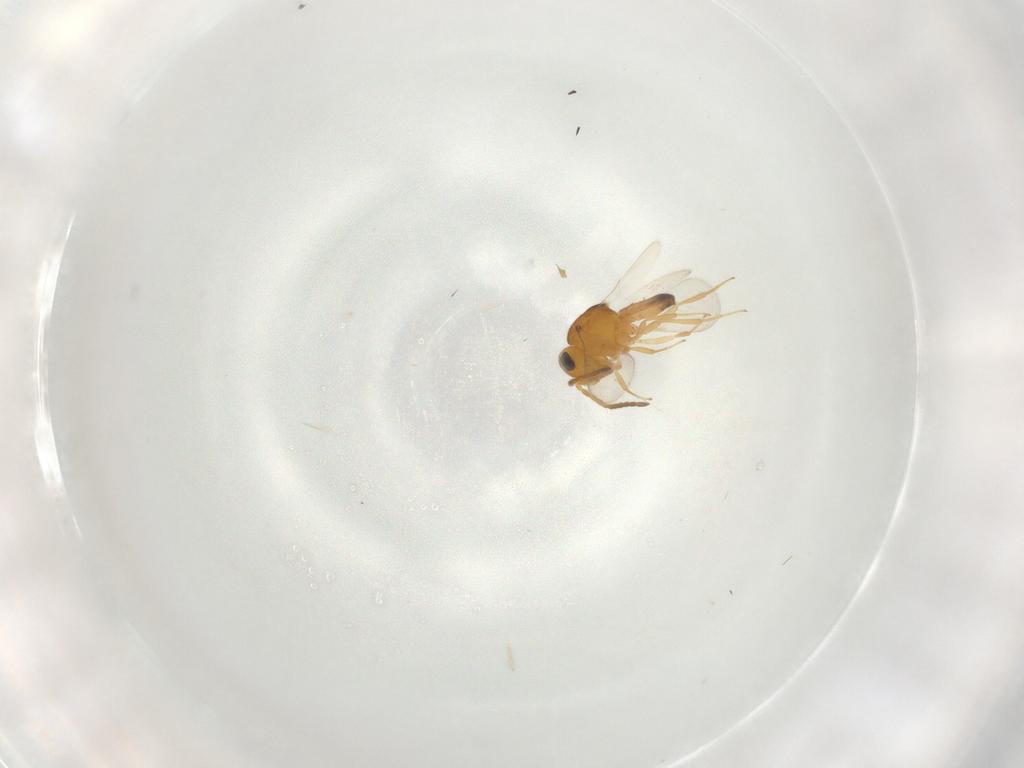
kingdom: Animalia
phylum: Arthropoda
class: Insecta
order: Hymenoptera
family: Scelionidae
